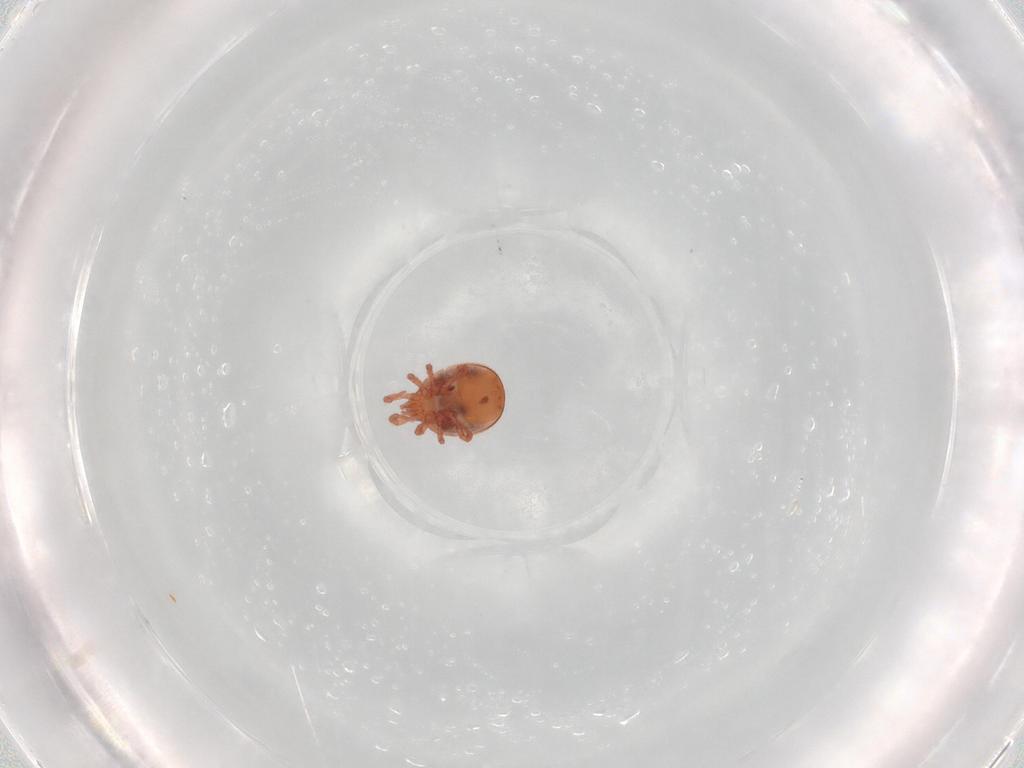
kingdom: Animalia
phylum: Arthropoda
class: Arachnida
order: Mesostigmata
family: Zerconidae
